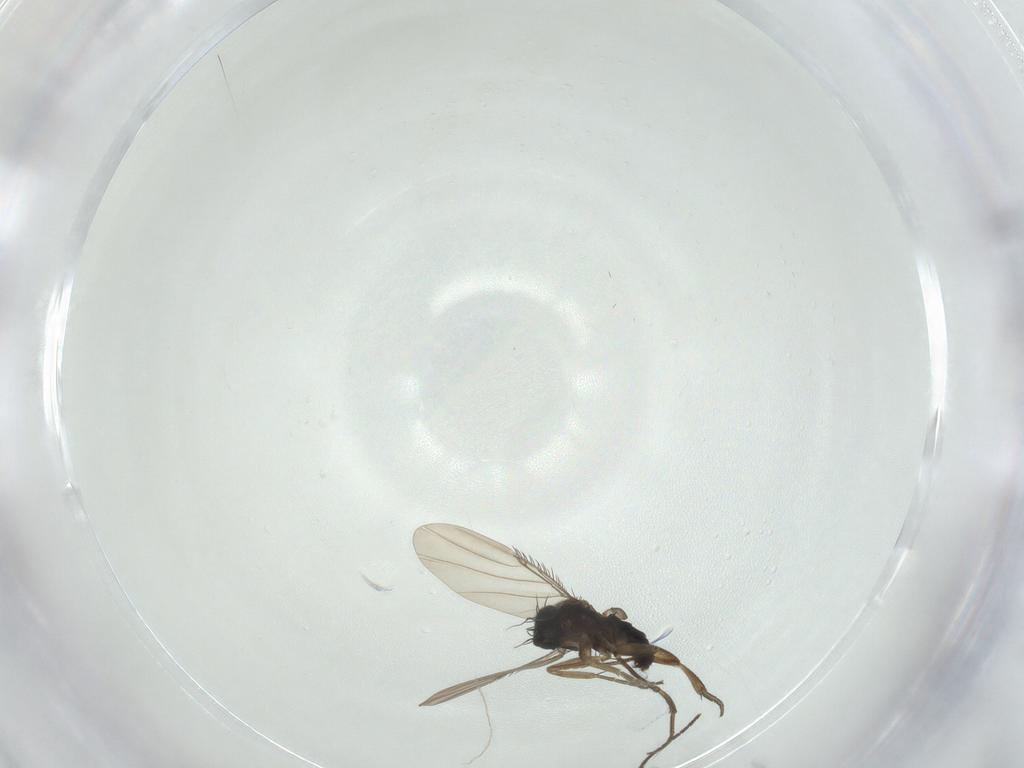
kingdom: Animalia
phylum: Arthropoda
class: Insecta
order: Diptera
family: Phoridae
